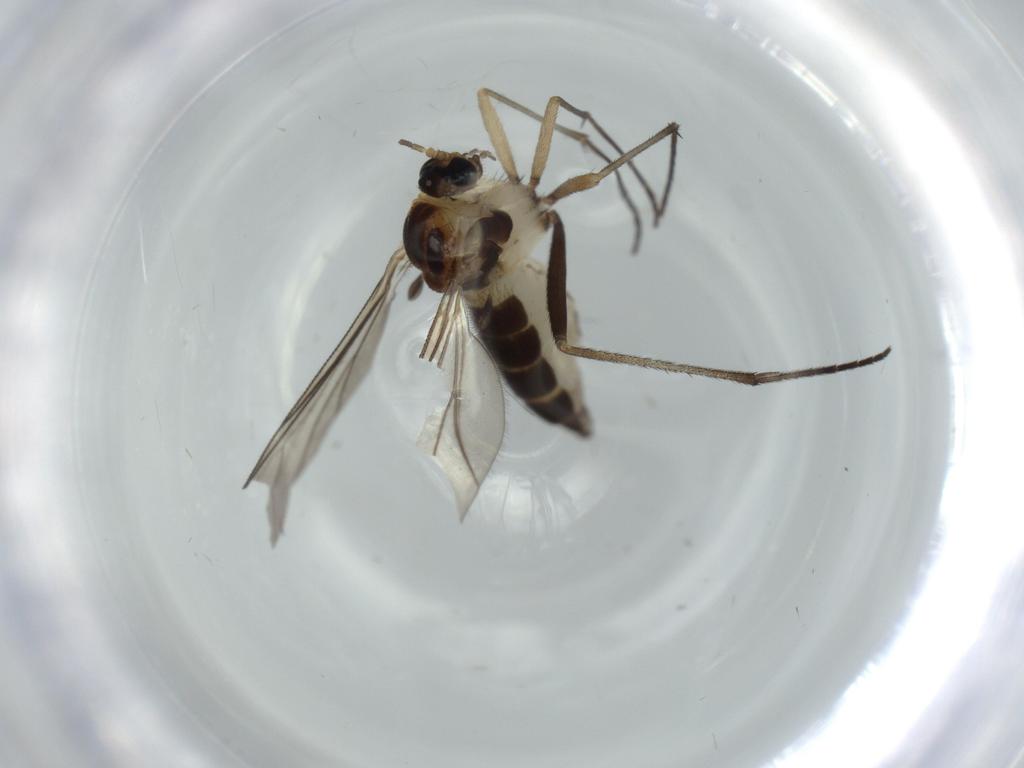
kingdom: Animalia
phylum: Arthropoda
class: Insecta
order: Diptera
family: Sciaridae
